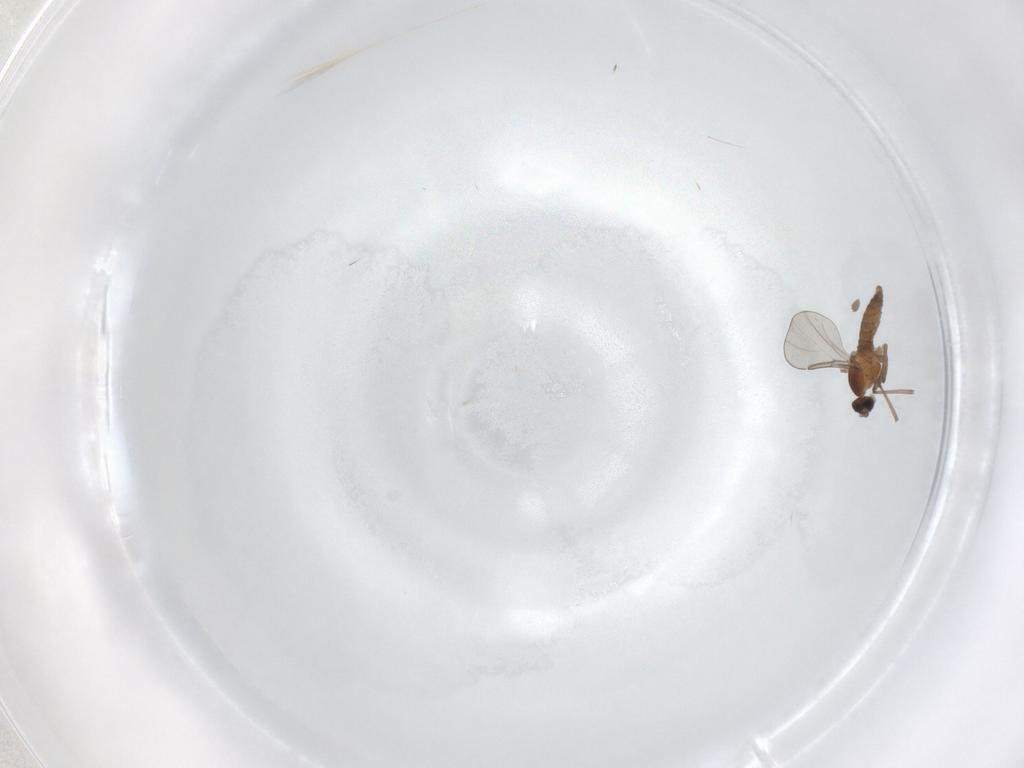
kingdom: Animalia
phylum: Arthropoda
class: Insecta
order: Diptera
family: Cecidomyiidae
